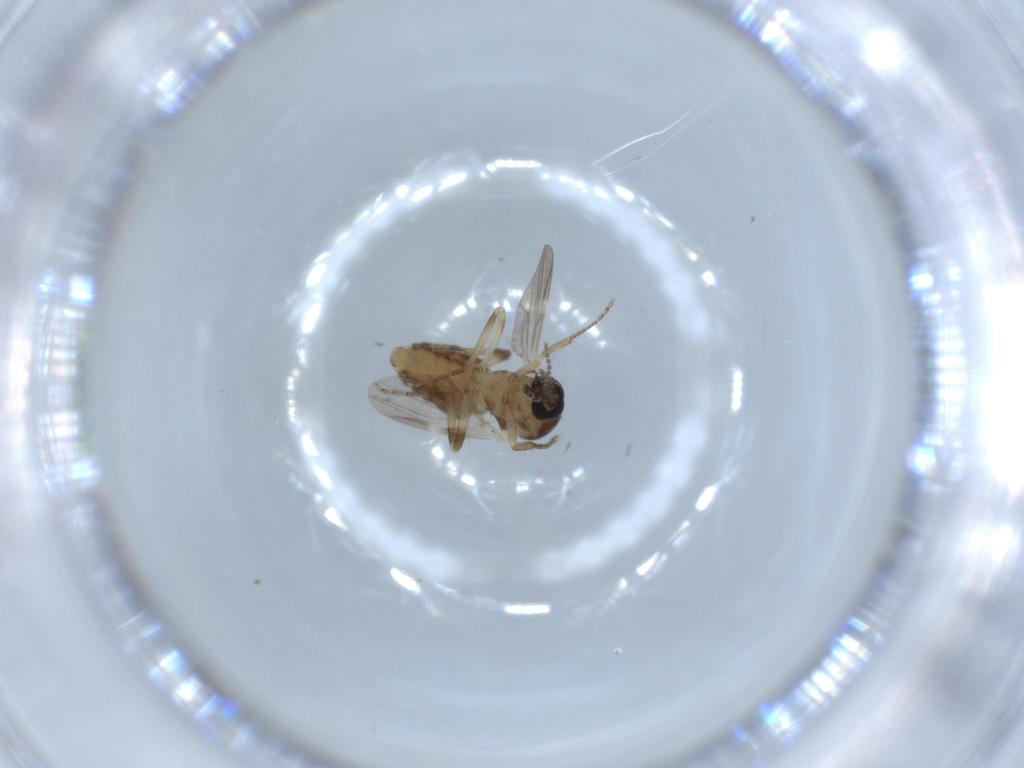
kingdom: Animalia
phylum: Arthropoda
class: Insecta
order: Diptera
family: Ceratopogonidae
